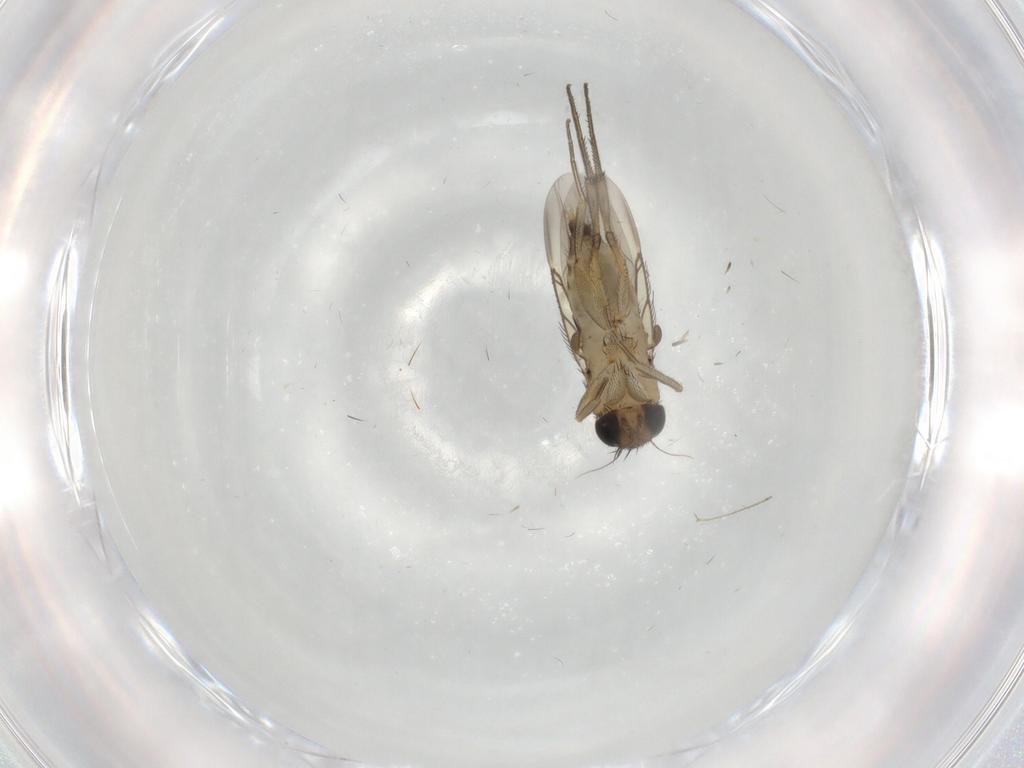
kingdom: Animalia
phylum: Arthropoda
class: Insecta
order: Diptera
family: Phoridae
